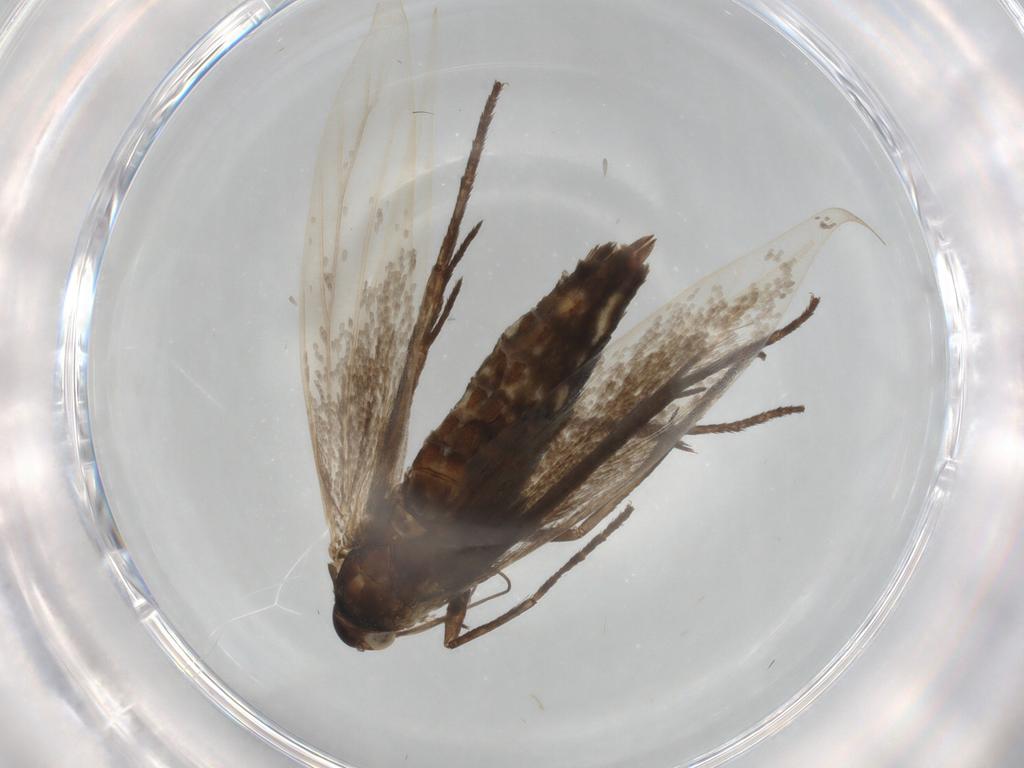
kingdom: Animalia
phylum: Arthropoda
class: Insecta
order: Lepidoptera
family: Coleophoridae
